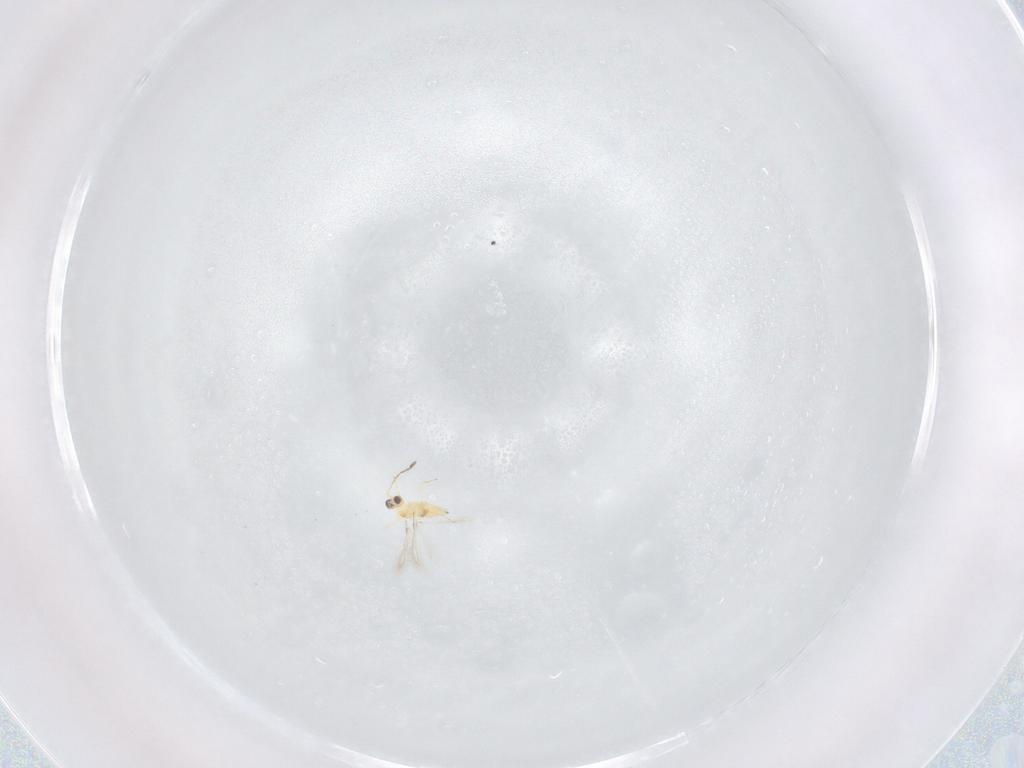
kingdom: Animalia
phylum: Arthropoda
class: Insecta
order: Hymenoptera
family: Mymaridae
